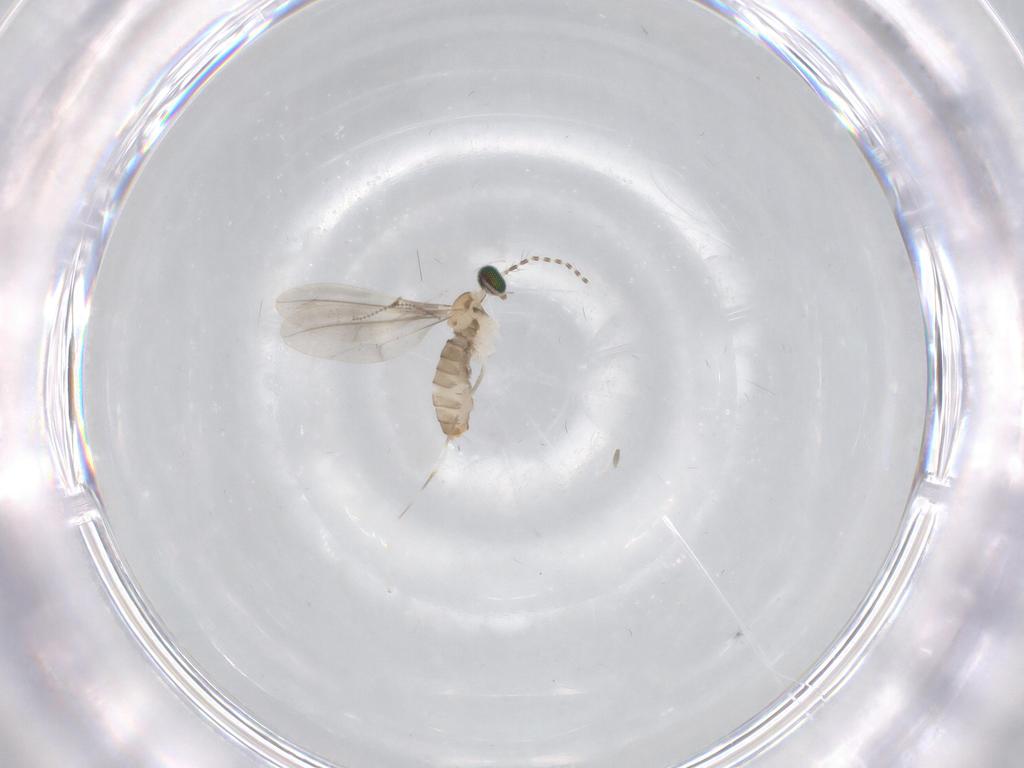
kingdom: Animalia
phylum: Arthropoda
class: Insecta
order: Diptera
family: Cecidomyiidae
